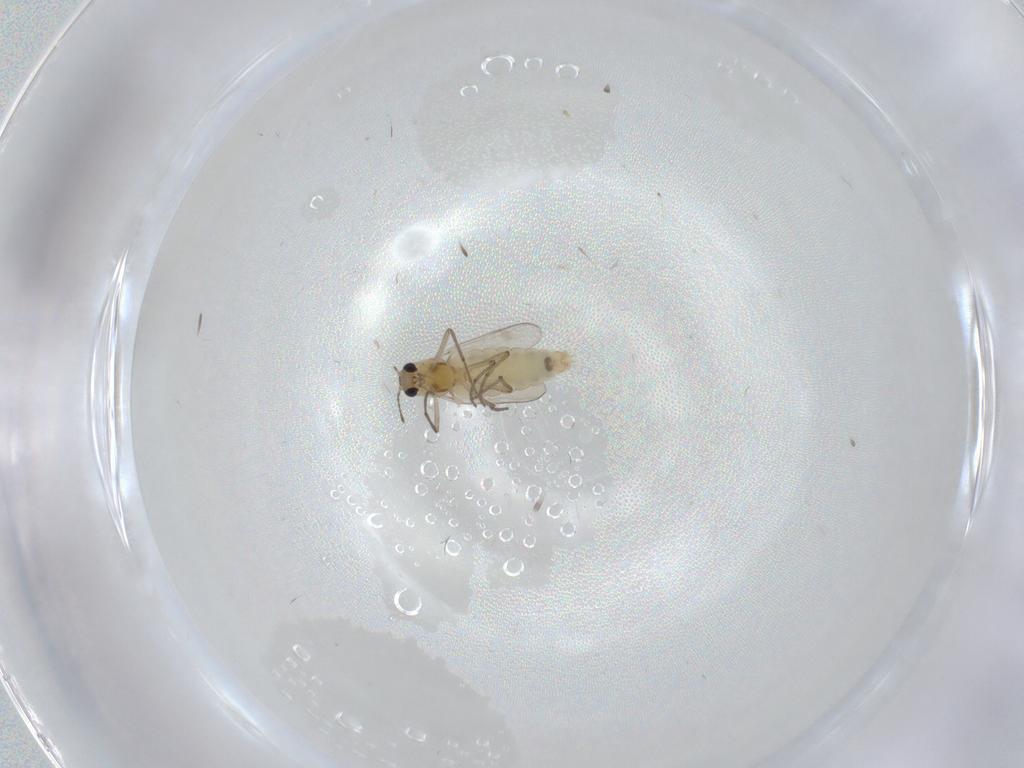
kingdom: Animalia
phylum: Arthropoda
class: Insecta
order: Diptera
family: Cecidomyiidae
